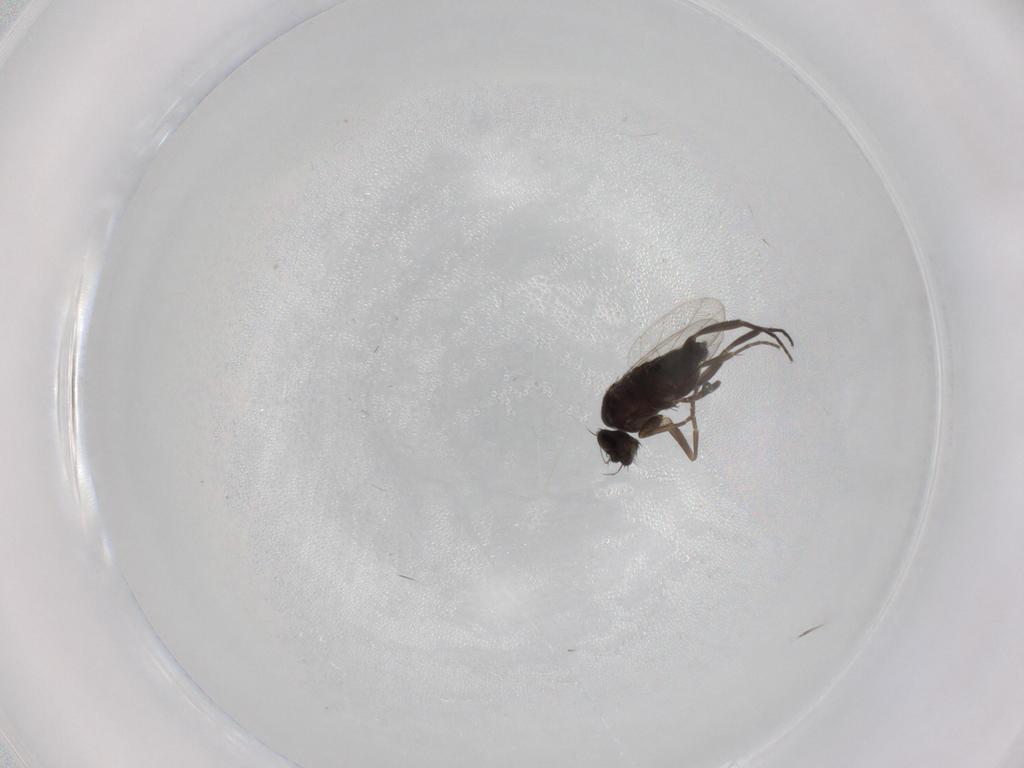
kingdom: Animalia
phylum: Arthropoda
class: Insecta
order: Diptera
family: Phoridae
